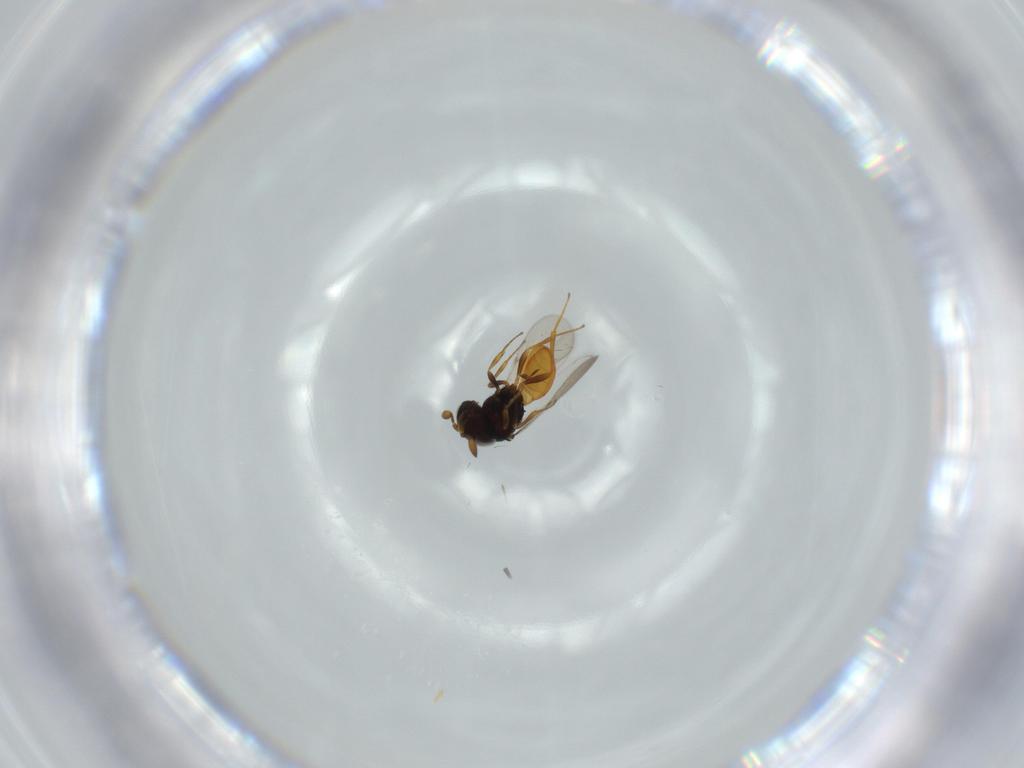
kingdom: Animalia
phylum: Arthropoda
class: Insecta
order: Hymenoptera
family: Scelionidae
